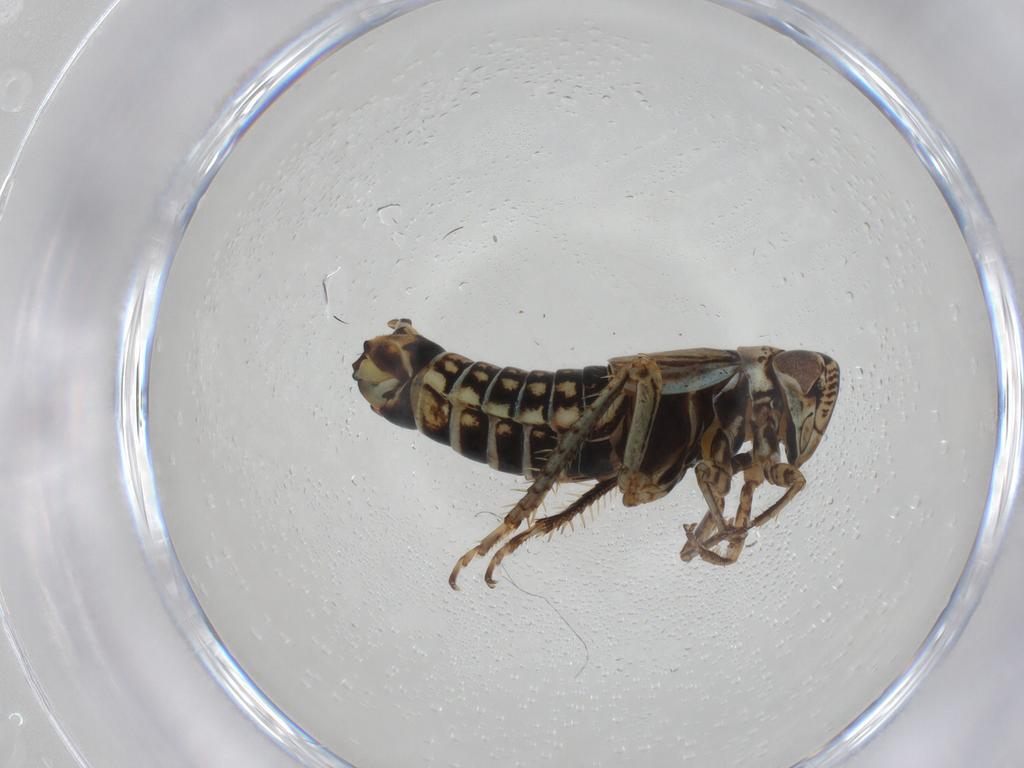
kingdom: Animalia
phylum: Arthropoda
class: Insecta
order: Hemiptera
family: Cicadellidae
